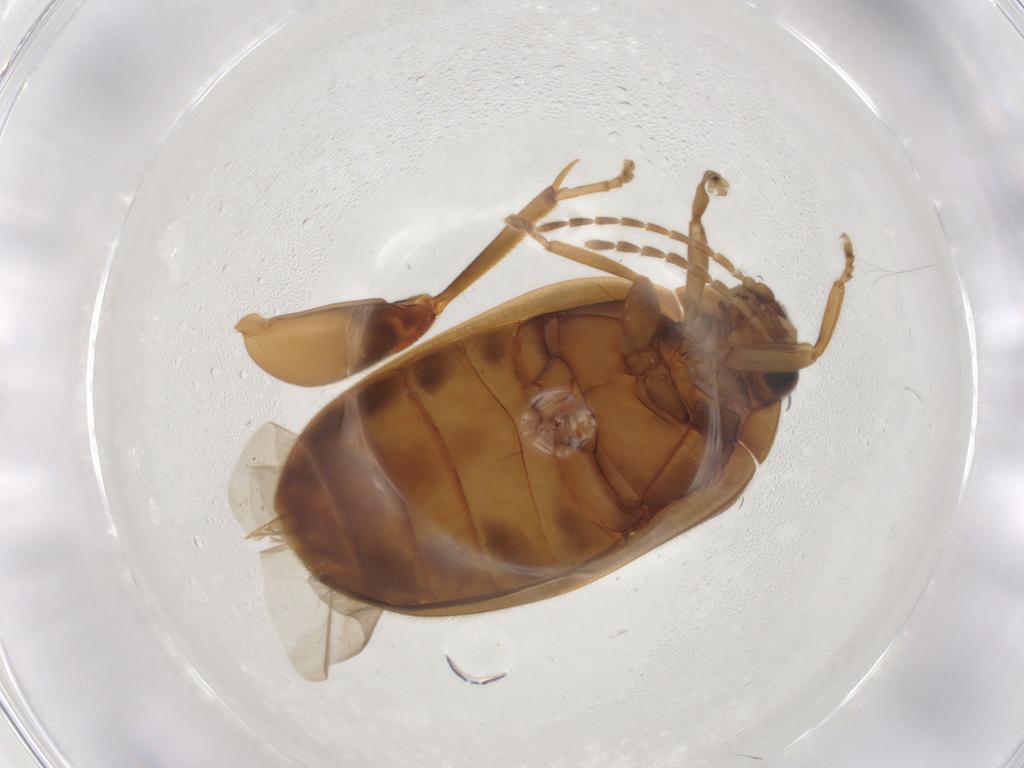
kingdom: Animalia
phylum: Arthropoda
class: Insecta
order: Coleoptera
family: Scirtidae
